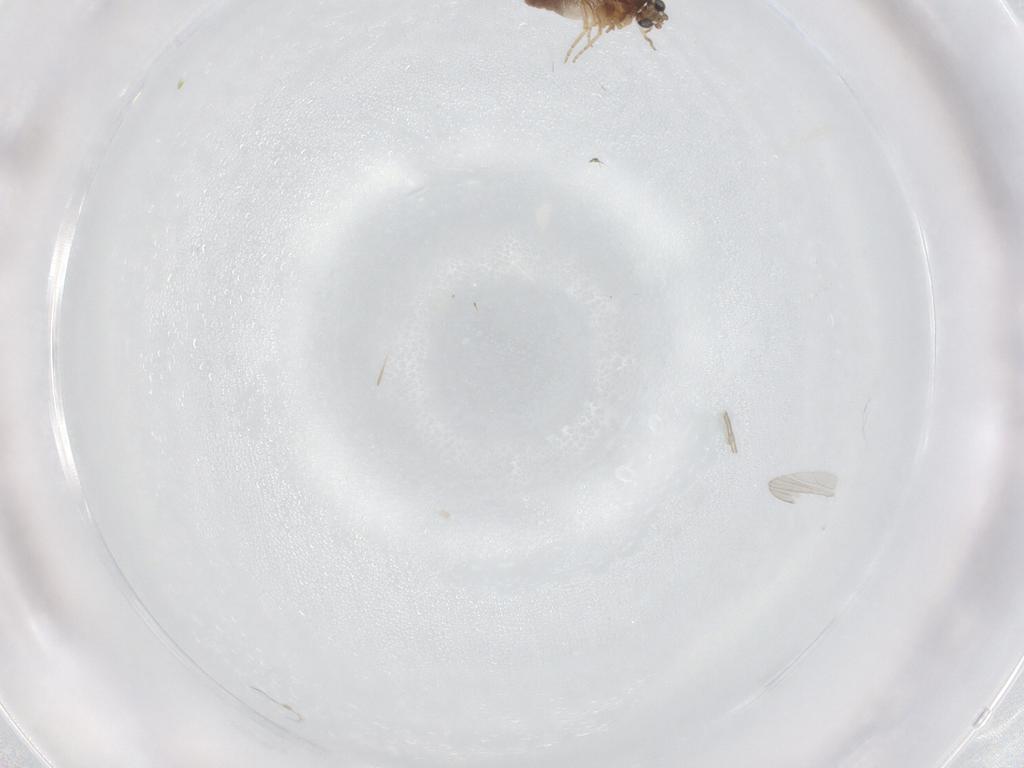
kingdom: Animalia
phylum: Arthropoda
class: Insecta
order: Diptera
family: Ceratopogonidae
